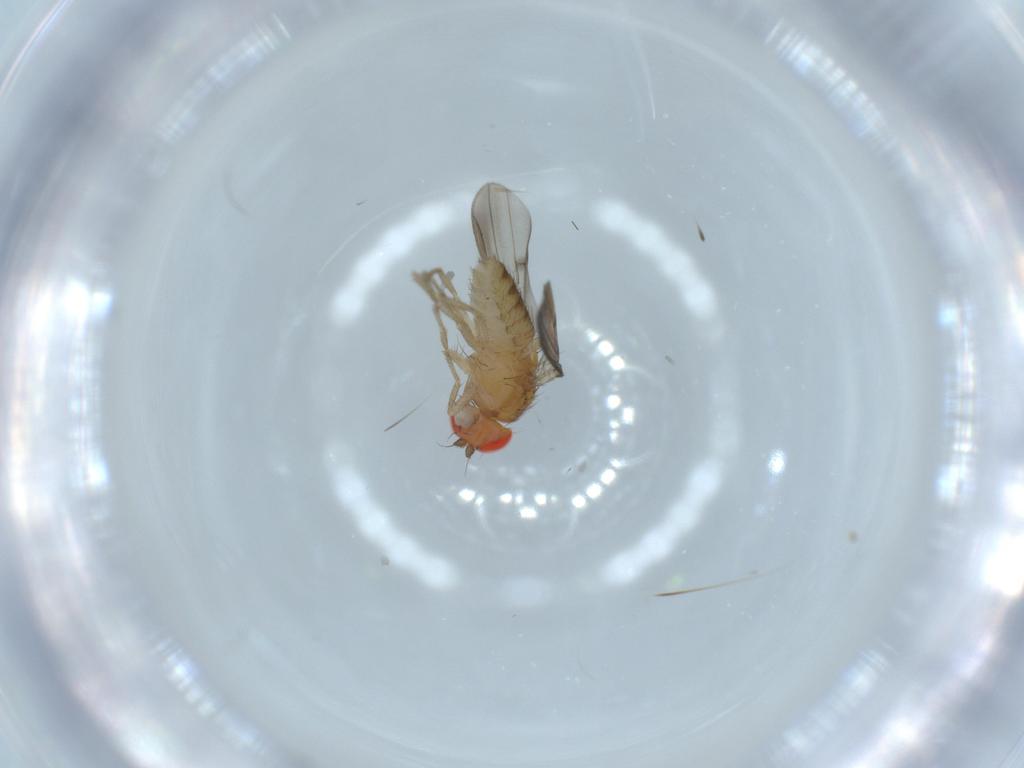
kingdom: Animalia
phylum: Arthropoda
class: Insecta
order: Diptera
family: Drosophilidae
